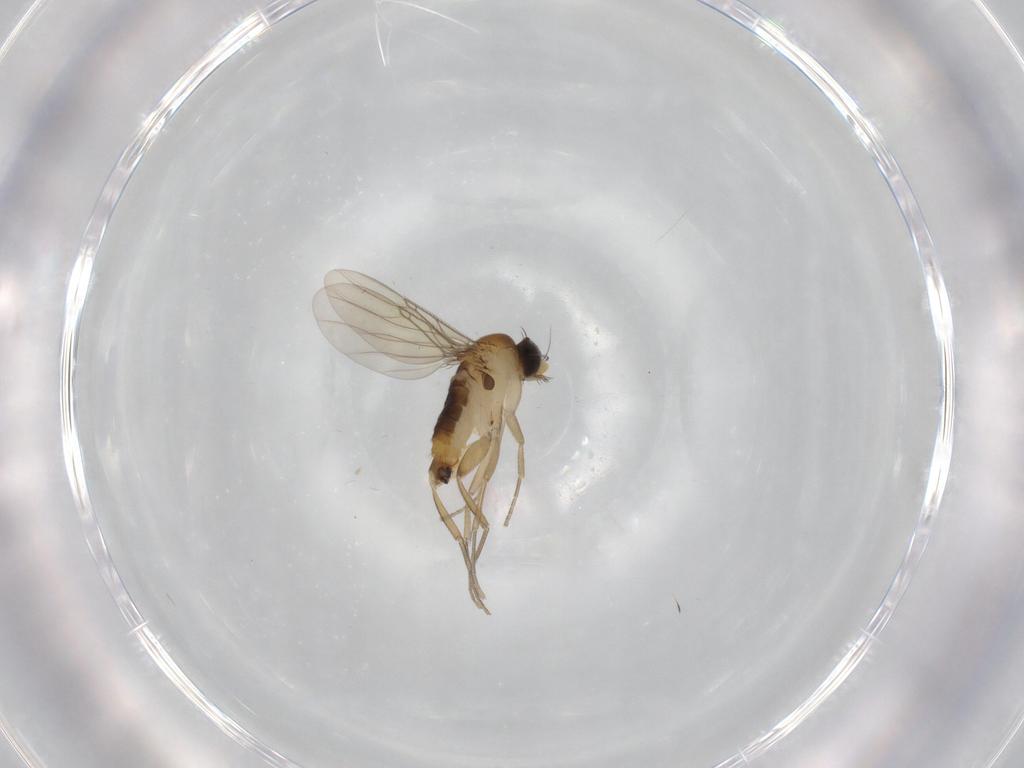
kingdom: Animalia
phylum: Arthropoda
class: Insecta
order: Diptera
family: Phoridae
